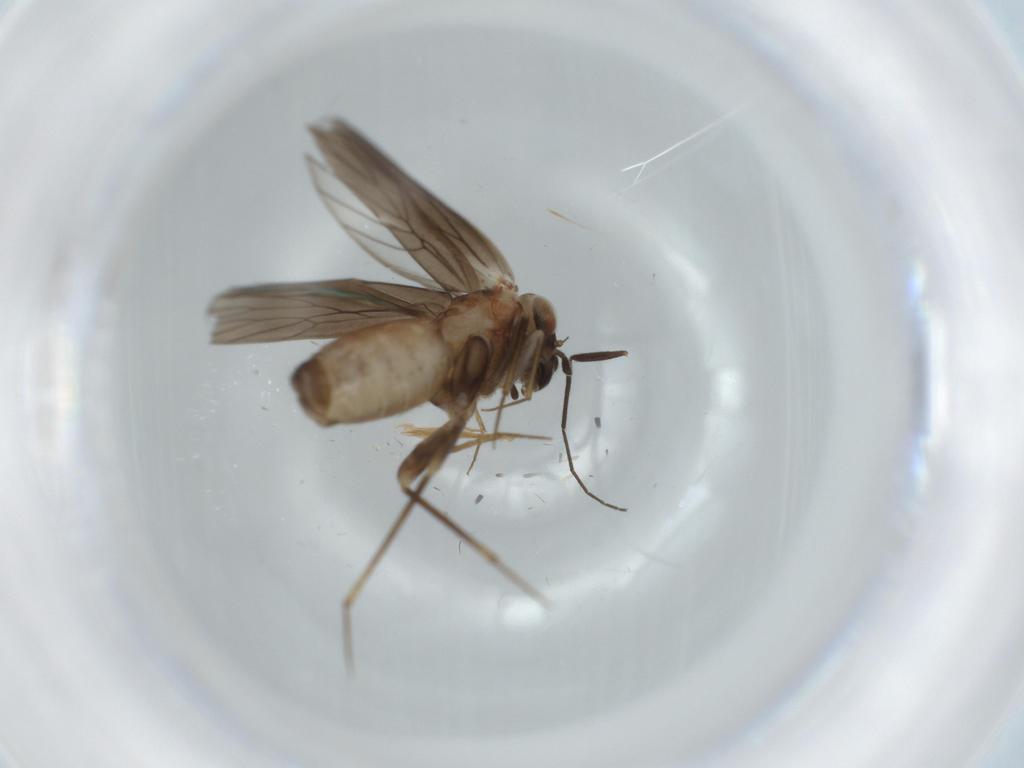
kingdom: Animalia
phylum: Arthropoda
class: Insecta
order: Psocodea
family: Lepidopsocidae
